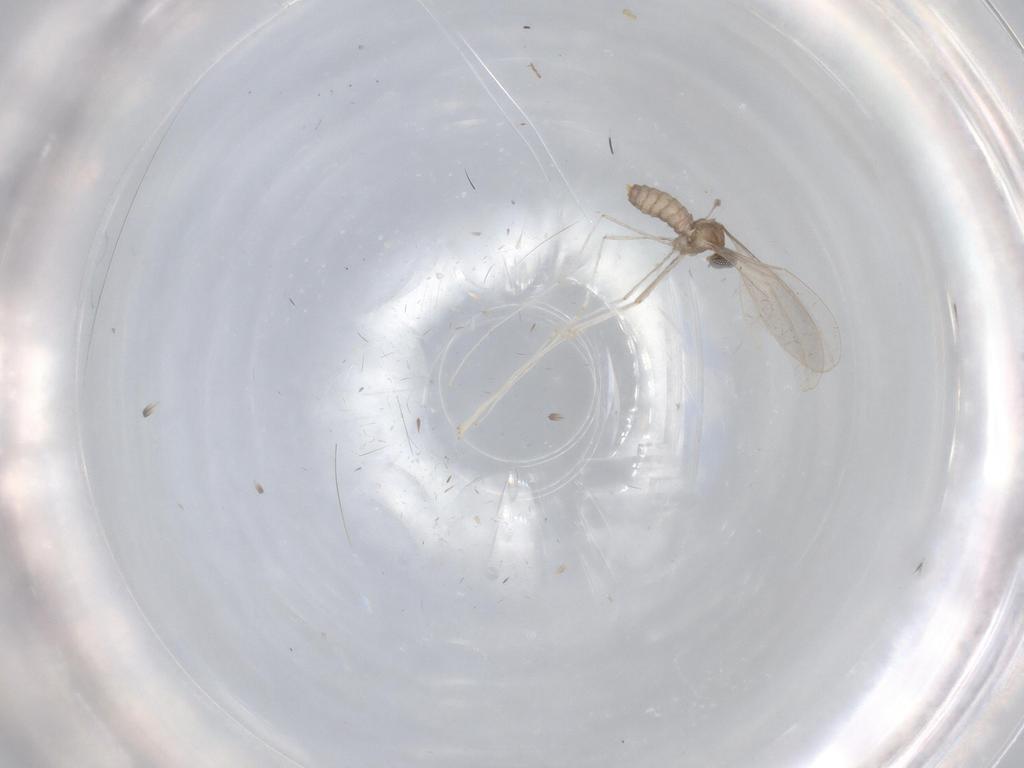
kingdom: Animalia
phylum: Arthropoda
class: Insecta
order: Diptera
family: Cecidomyiidae
